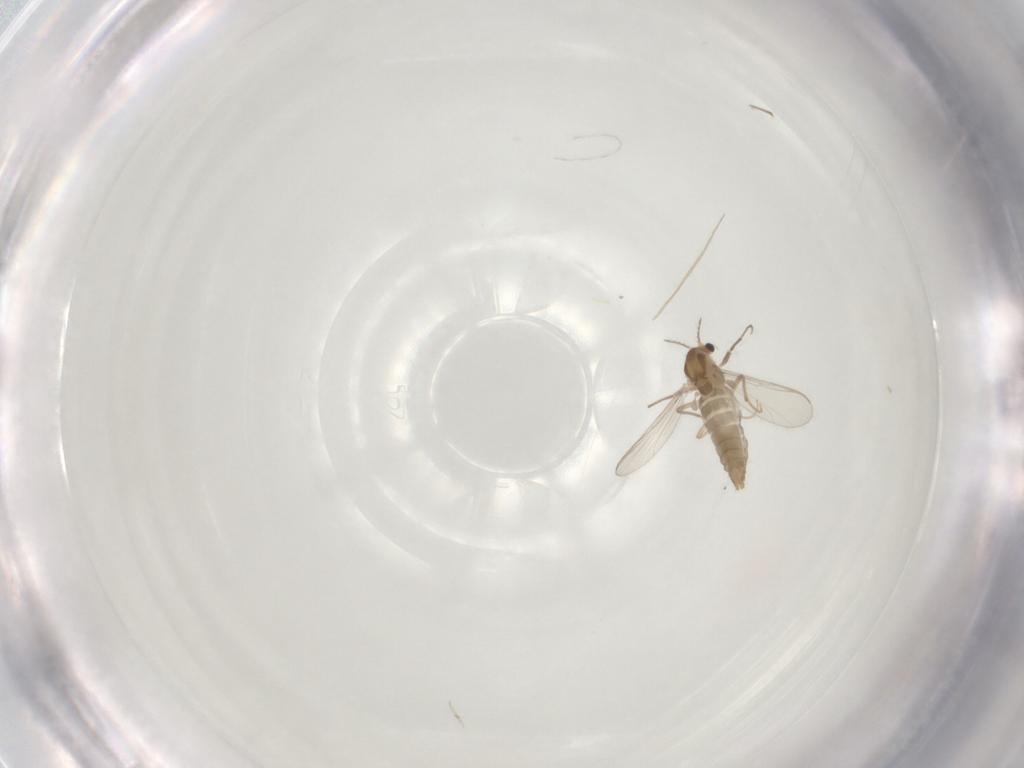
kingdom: Animalia
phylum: Arthropoda
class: Insecta
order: Diptera
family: Chironomidae
